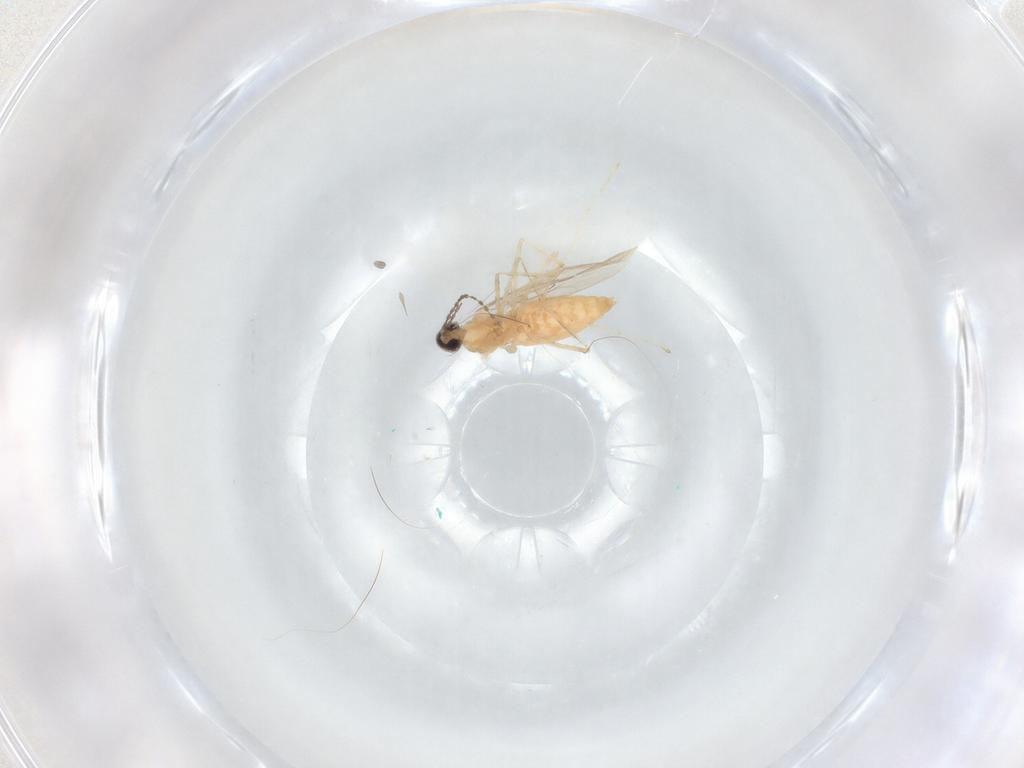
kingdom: Animalia
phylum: Arthropoda
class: Insecta
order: Diptera
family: Cecidomyiidae
